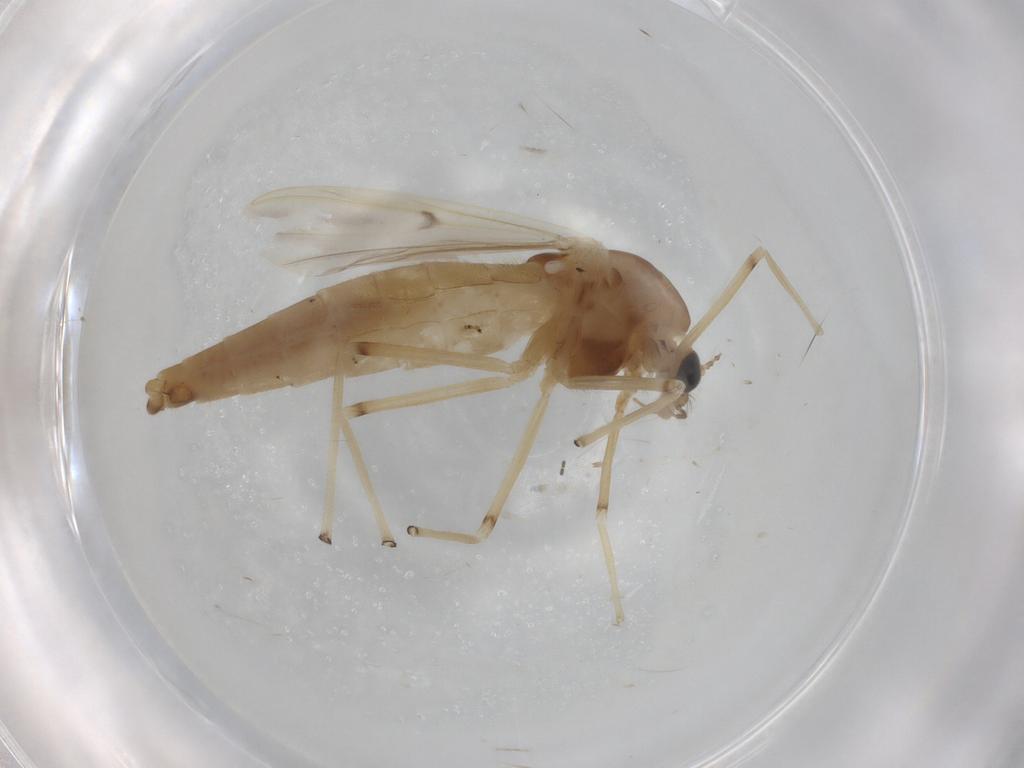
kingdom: Animalia
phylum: Arthropoda
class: Insecta
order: Diptera
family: Chironomidae
